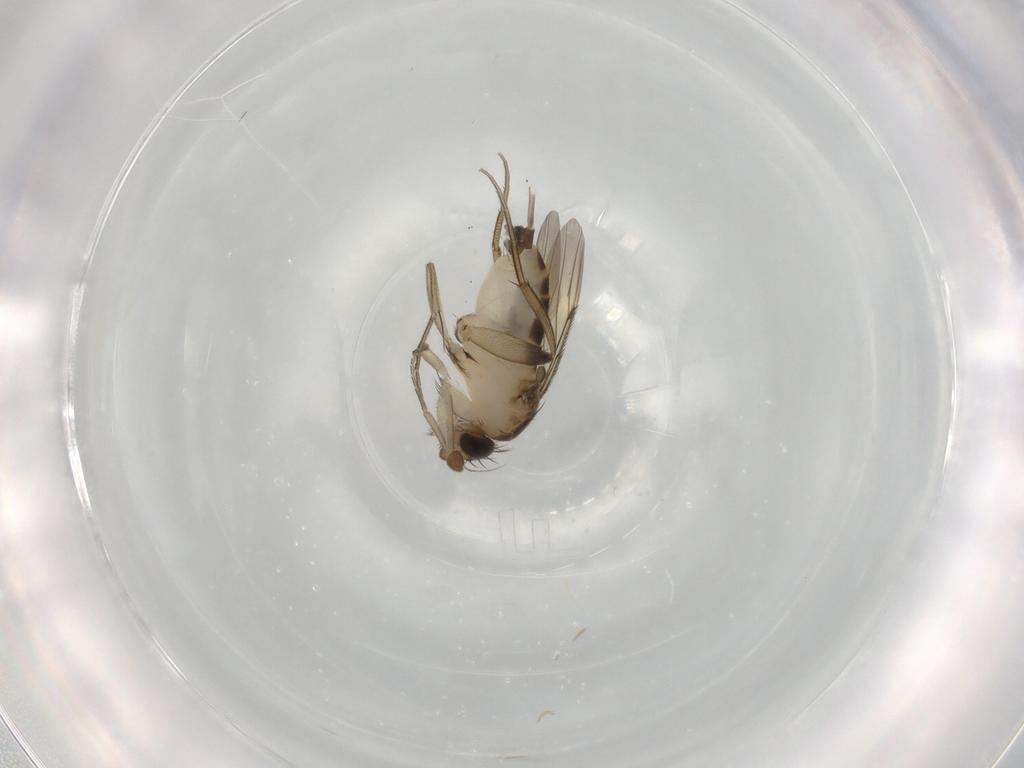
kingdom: Animalia
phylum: Arthropoda
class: Insecta
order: Diptera
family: Phoridae
